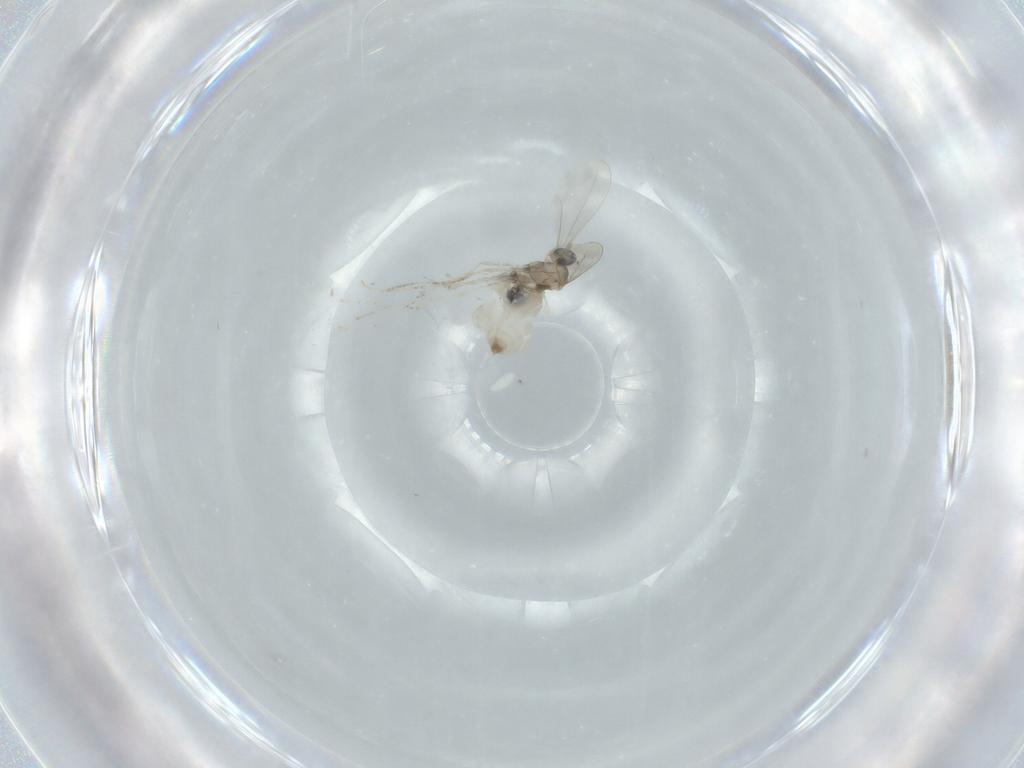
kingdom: Animalia
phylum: Arthropoda
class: Insecta
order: Diptera
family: Cecidomyiidae
